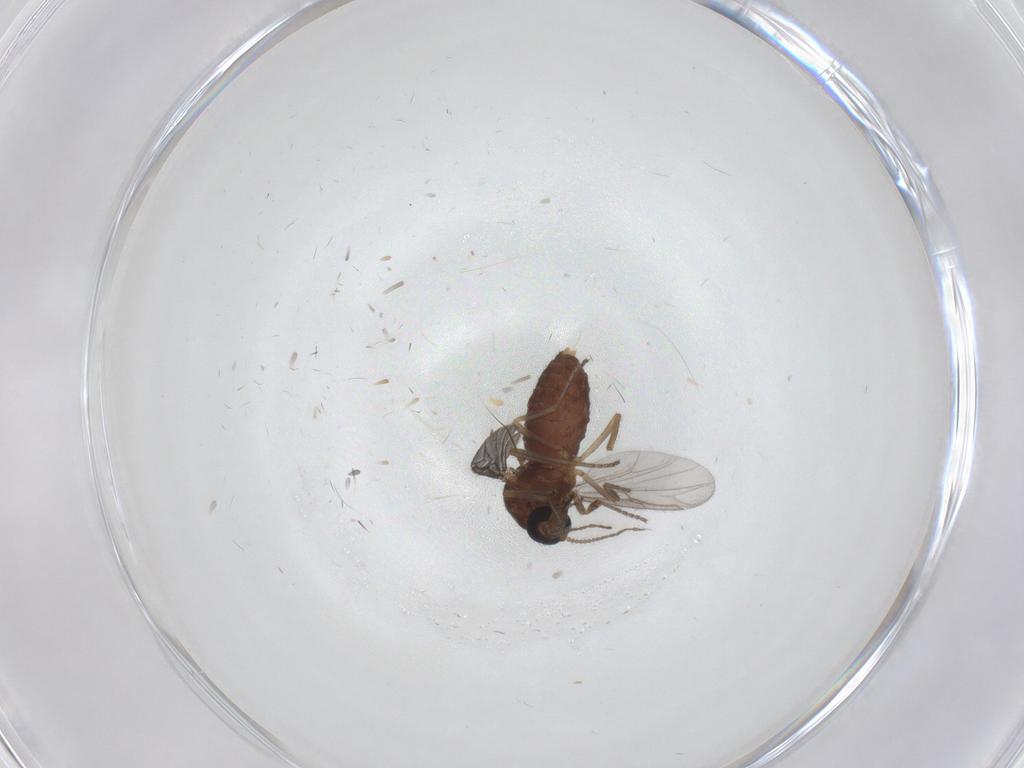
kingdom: Animalia
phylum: Arthropoda
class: Insecta
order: Diptera
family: Ceratopogonidae
